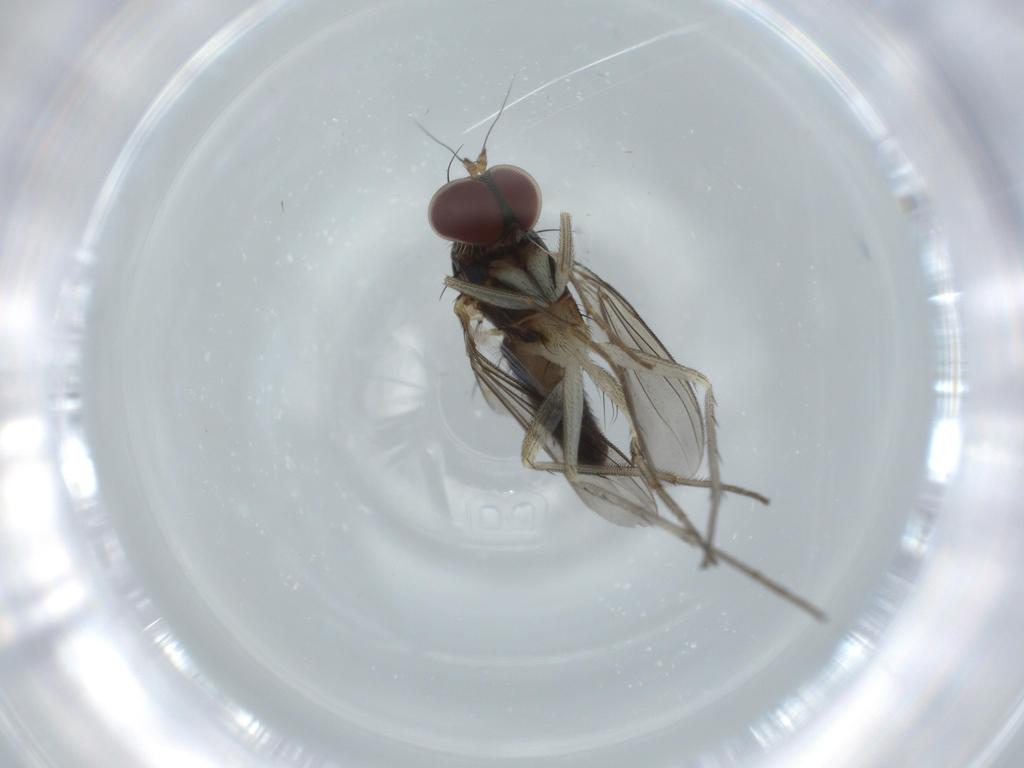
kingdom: Animalia
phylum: Arthropoda
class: Insecta
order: Diptera
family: Dolichopodidae
